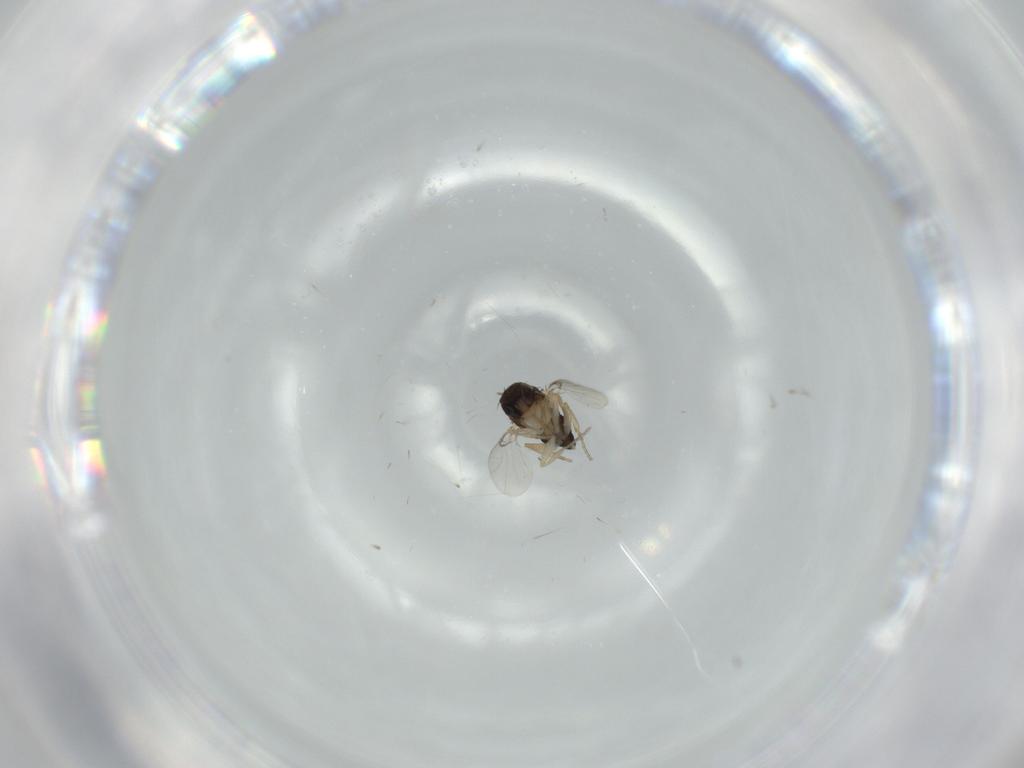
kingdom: Animalia
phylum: Arthropoda
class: Insecta
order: Diptera
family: Phoridae
